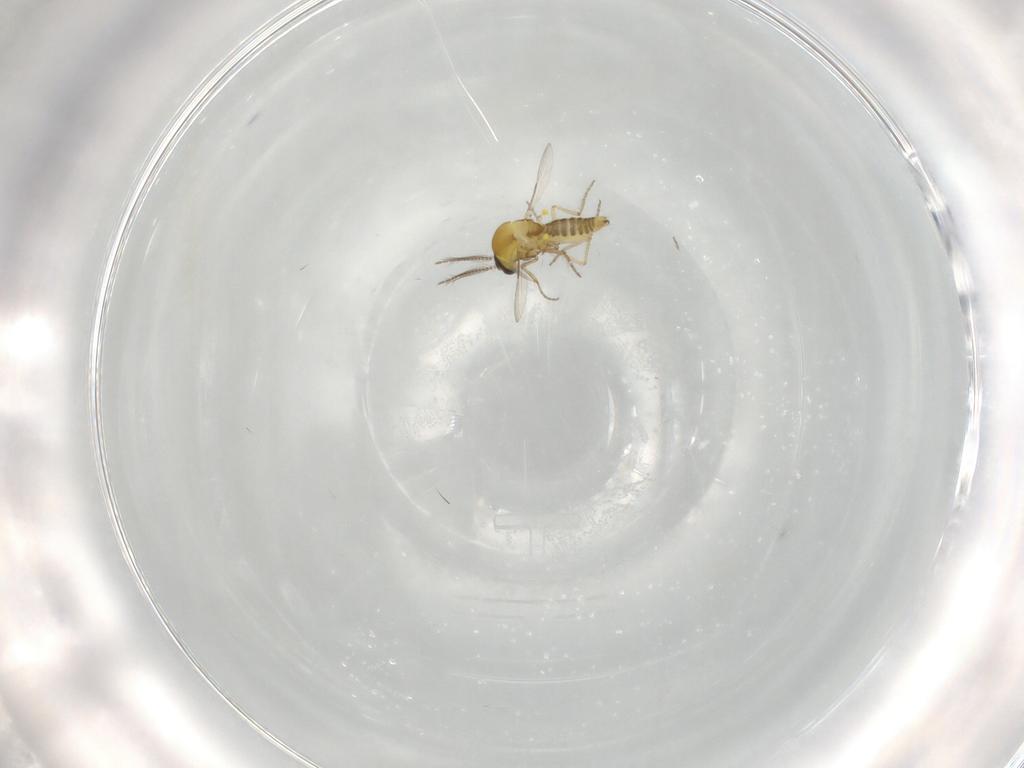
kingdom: Animalia
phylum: Arthropoda
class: Insecta
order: Diptera
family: Ceratopogonidae
